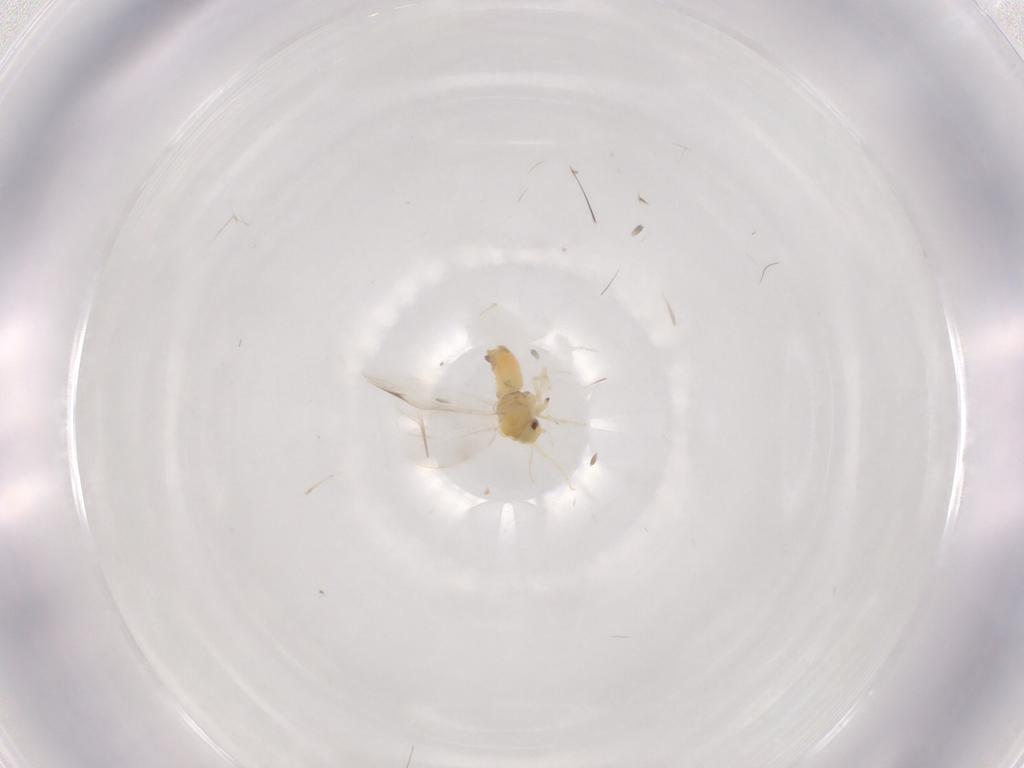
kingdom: Animalia
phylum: Arthropoda
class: Insecta
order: Hemiptera
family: Aleyrodidae
